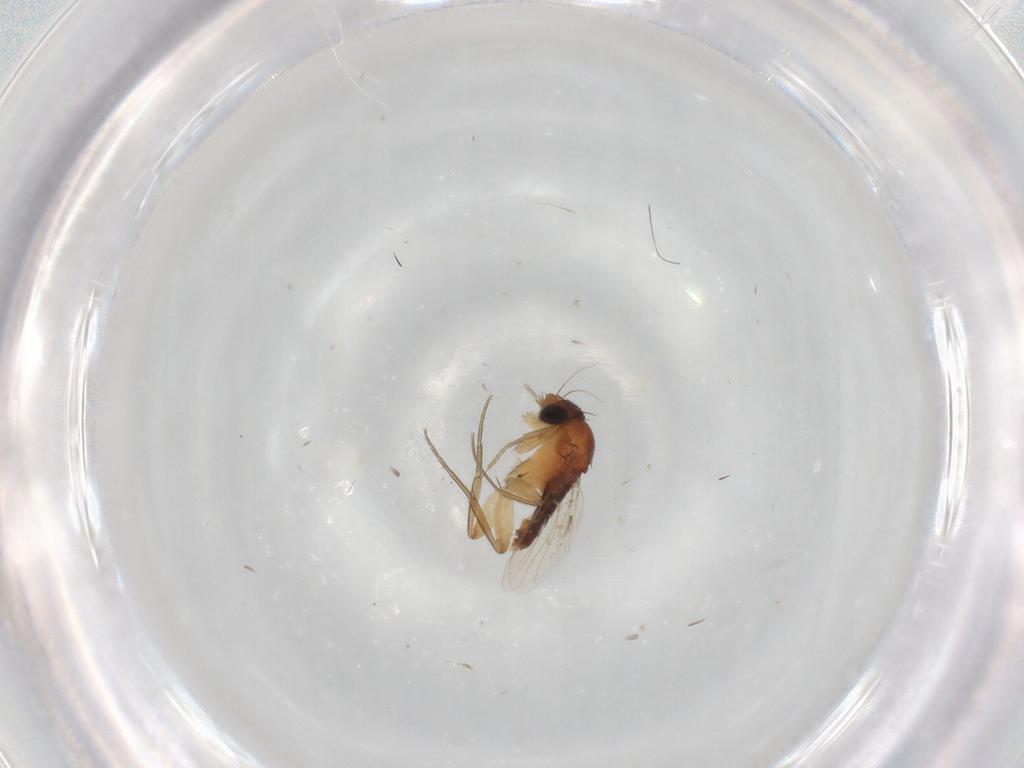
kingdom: Animalia
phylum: Arthropoda
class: Insecta
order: Diptera
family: Phoridae
